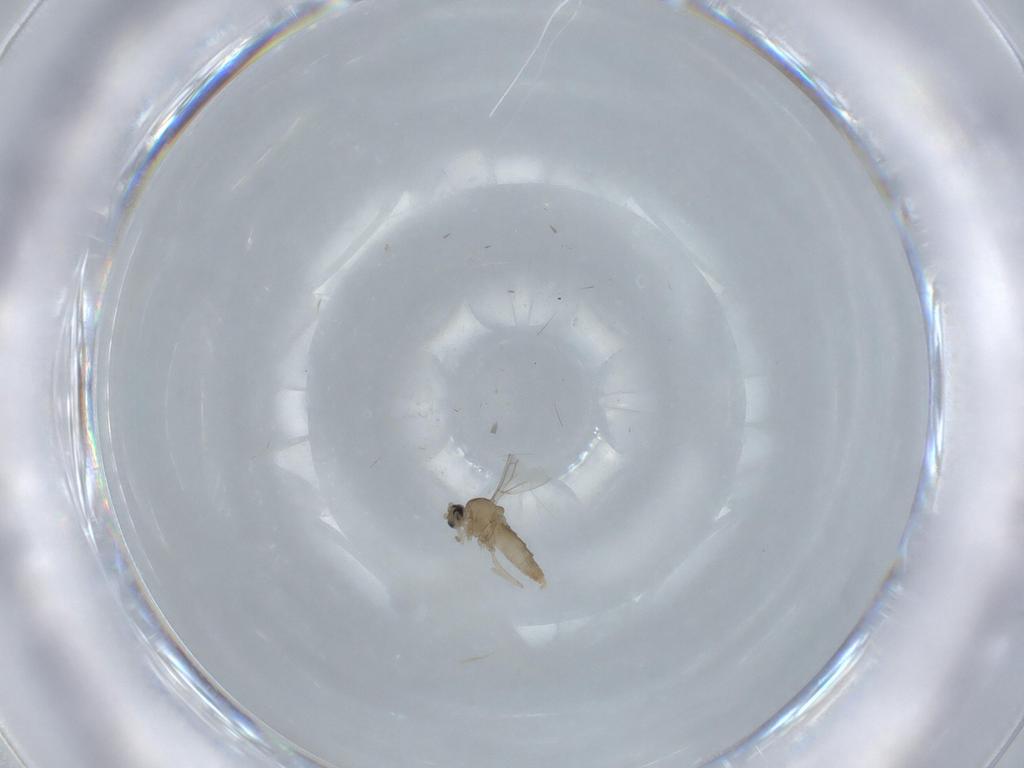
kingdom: Animalia
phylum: Arthropoda
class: Insecta
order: Diptera
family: Cecidomyiidae
